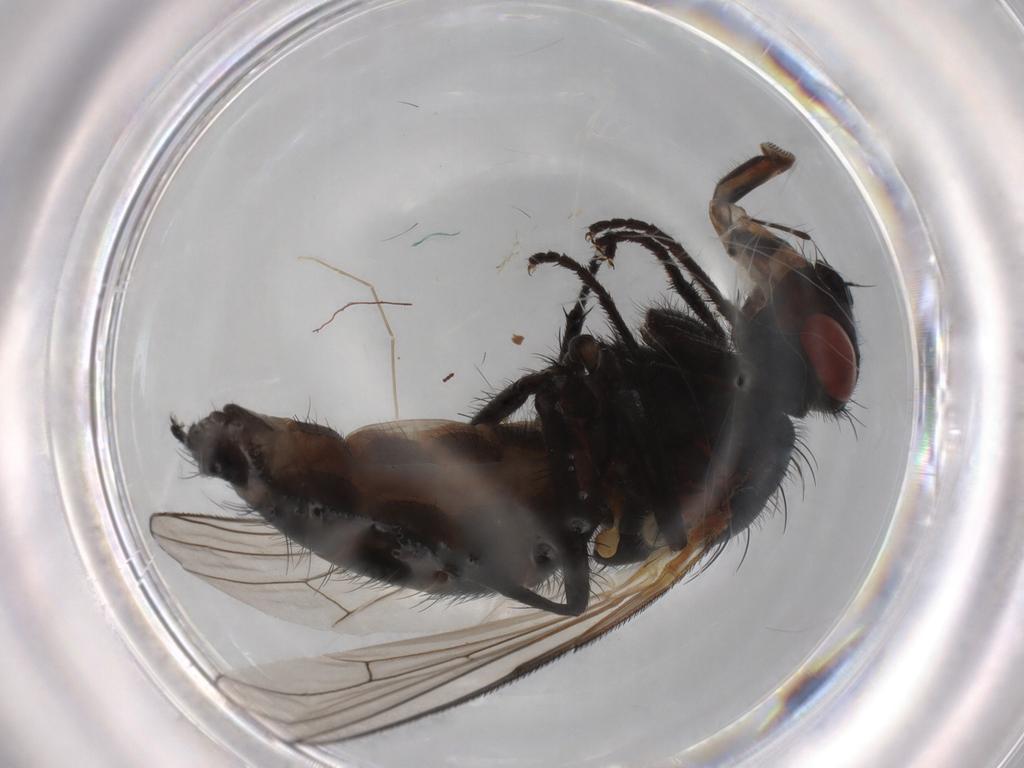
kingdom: Animalia
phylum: Arthropoda
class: Insecta
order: Diptera
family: Anthomyiidae
